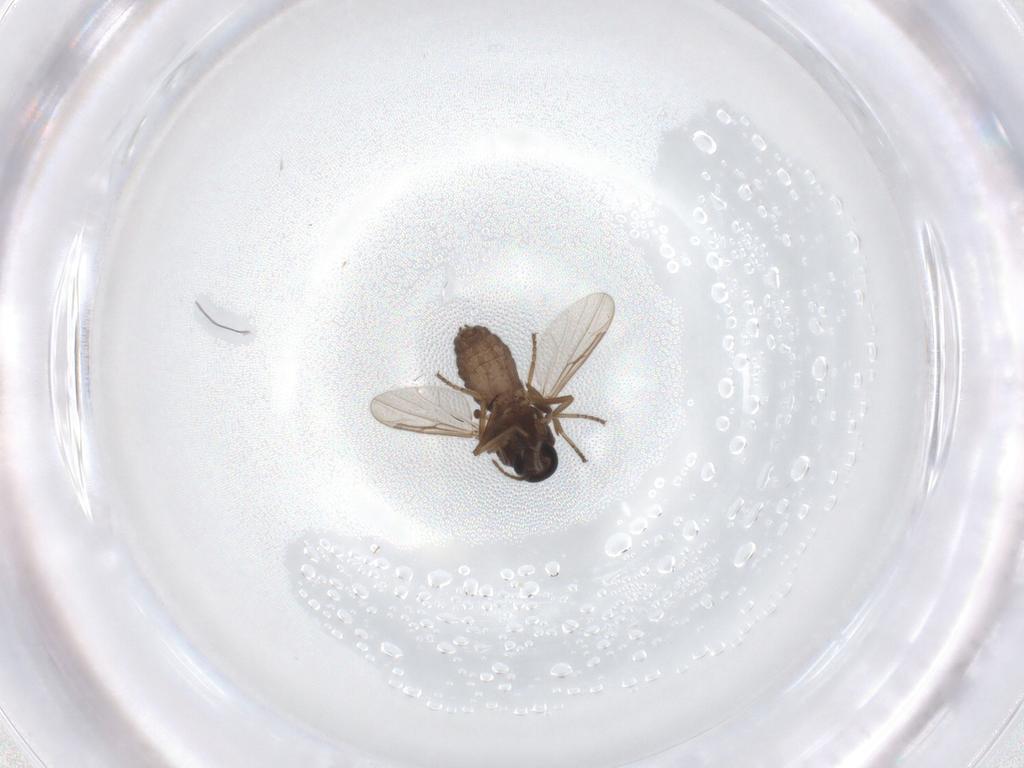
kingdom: Animalia
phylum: Arthropoda
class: Insecta
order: Diptera
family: Ceratopogonidae
